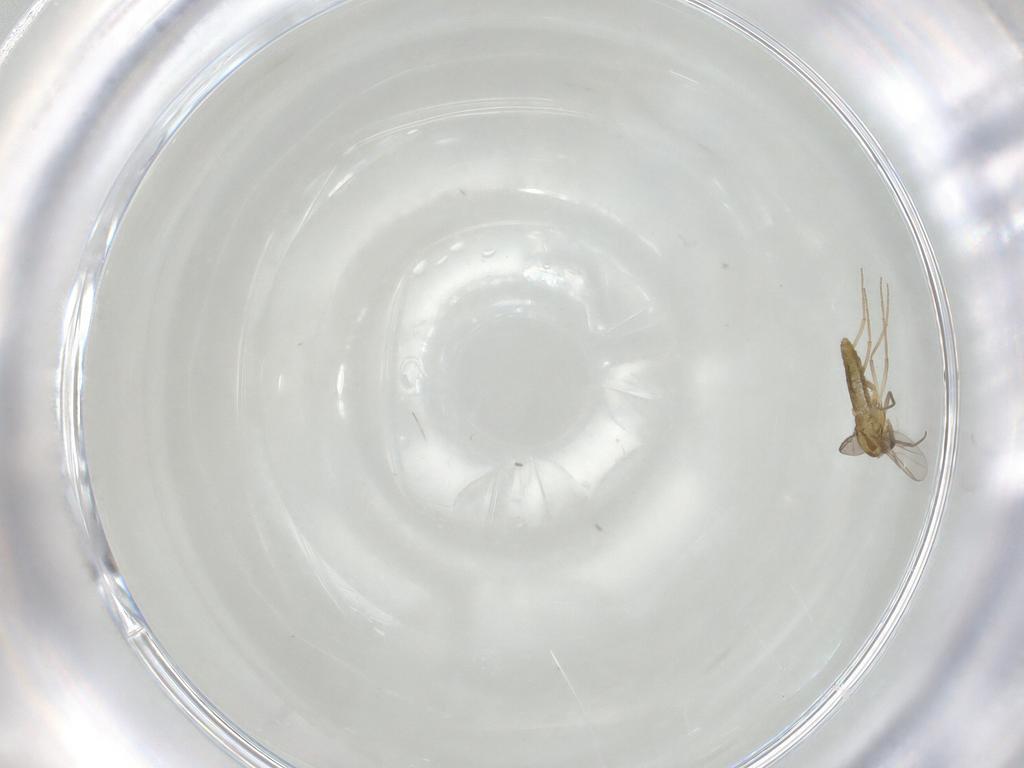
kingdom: Animalia
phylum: Arthropoda
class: Insecta
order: Diptera
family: Chironomidae
